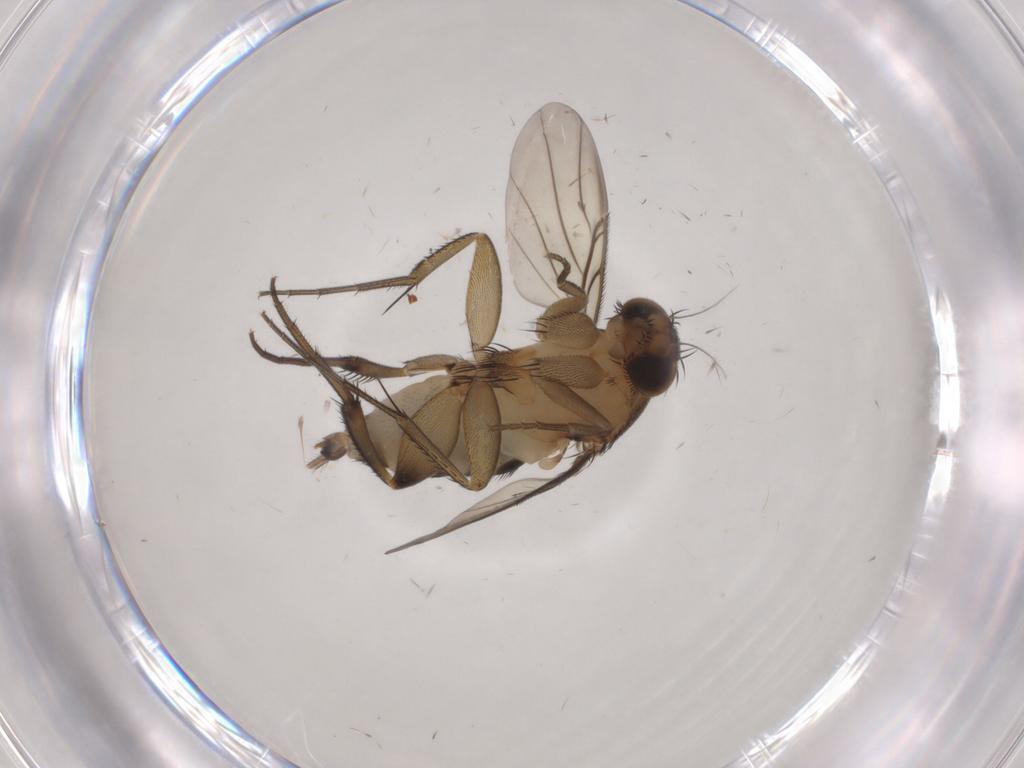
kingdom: Animalia
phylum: Arthropoda
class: Insecta
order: Diptera
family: Phoridae
